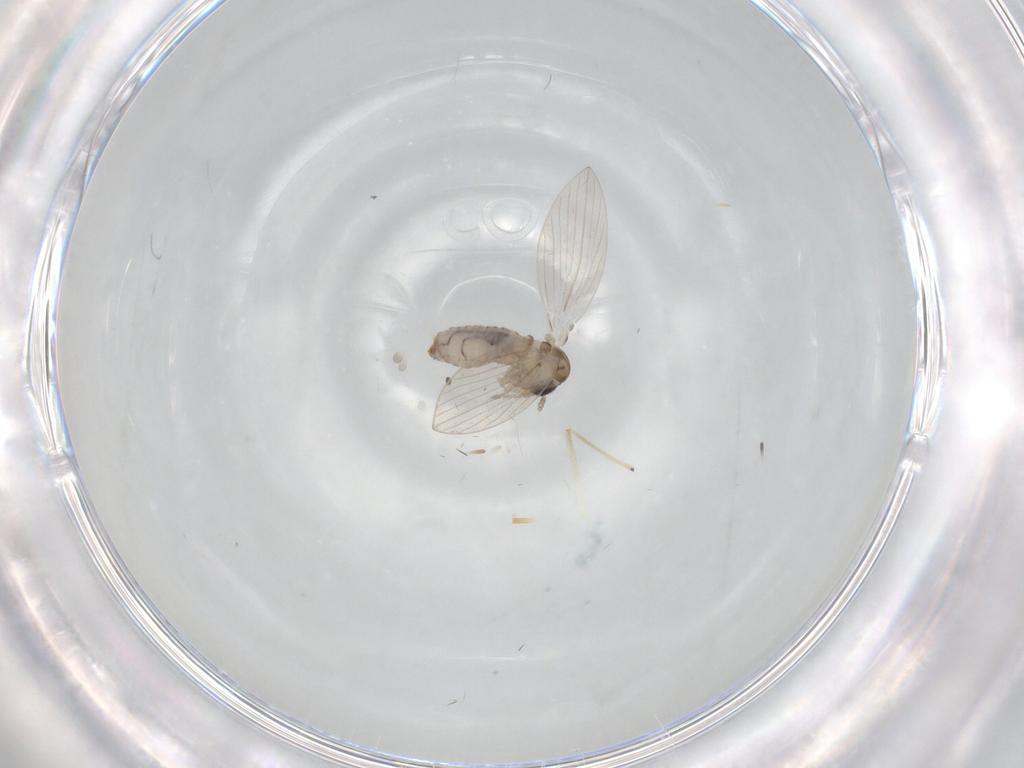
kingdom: Animalia
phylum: Arthropoda
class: Insecta
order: Diptera
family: Psychodidae
